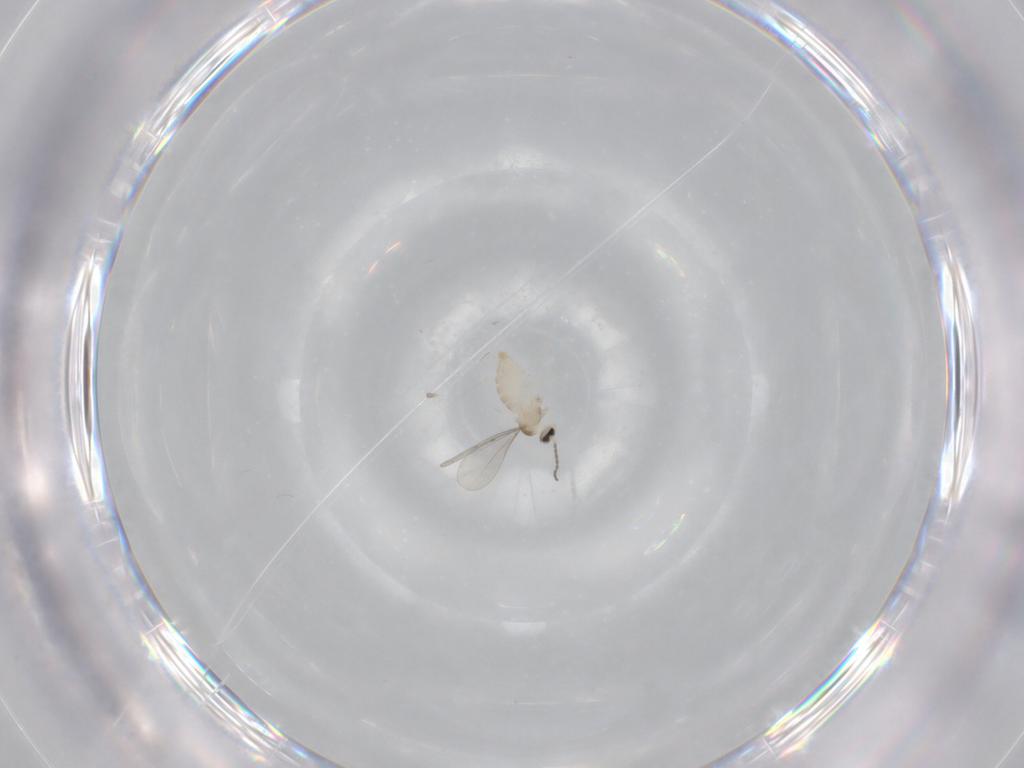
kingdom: Animalia
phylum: Arthropoda
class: Insecta
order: Diptera
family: Cecidomyiidae
